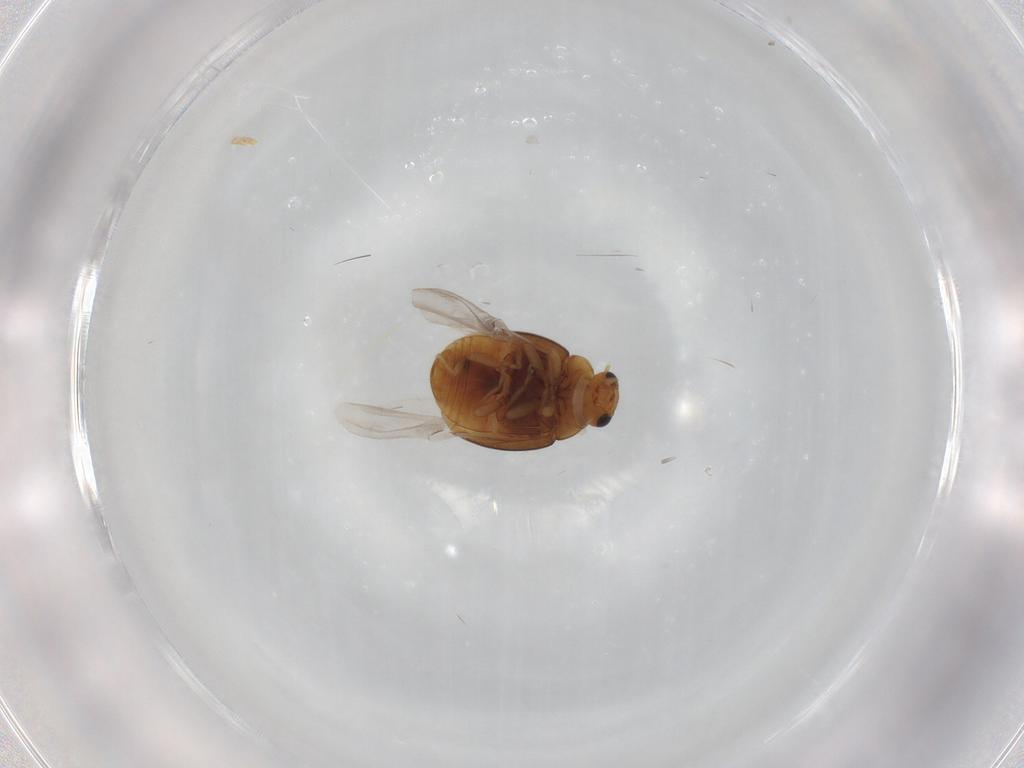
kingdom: Animalia
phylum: Arthropoda
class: Insecta
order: Coleoptera
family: Coccinellidae
